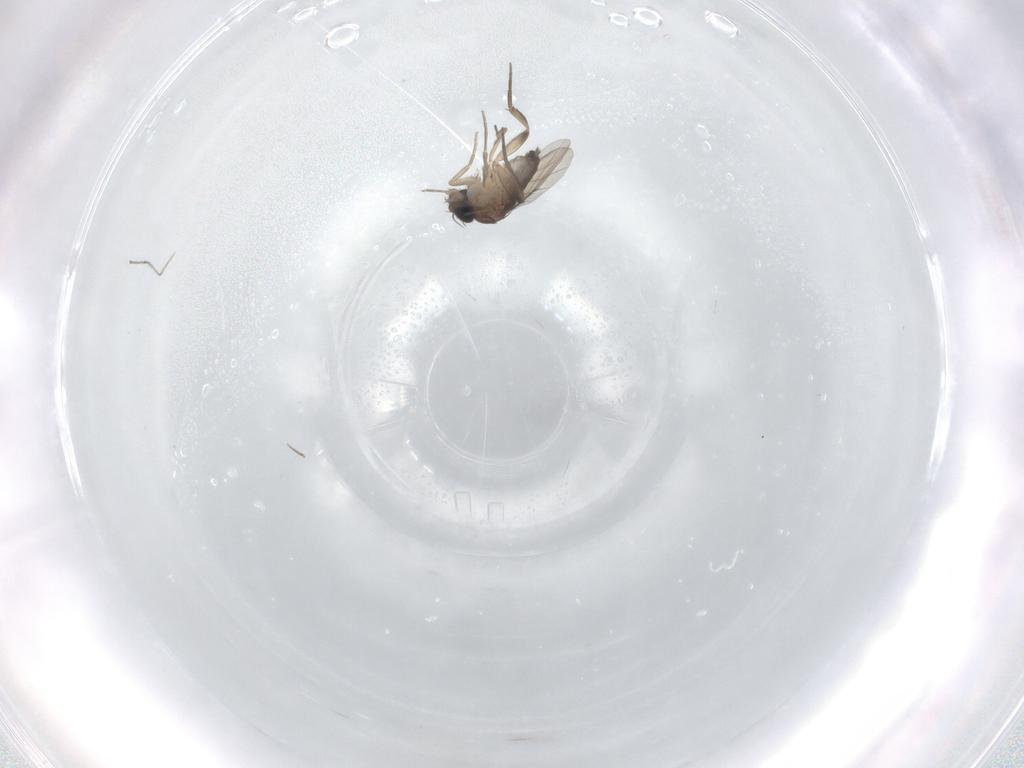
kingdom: Animalia
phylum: Arthropoda
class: Insecta
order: Diptera
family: Phoridae
